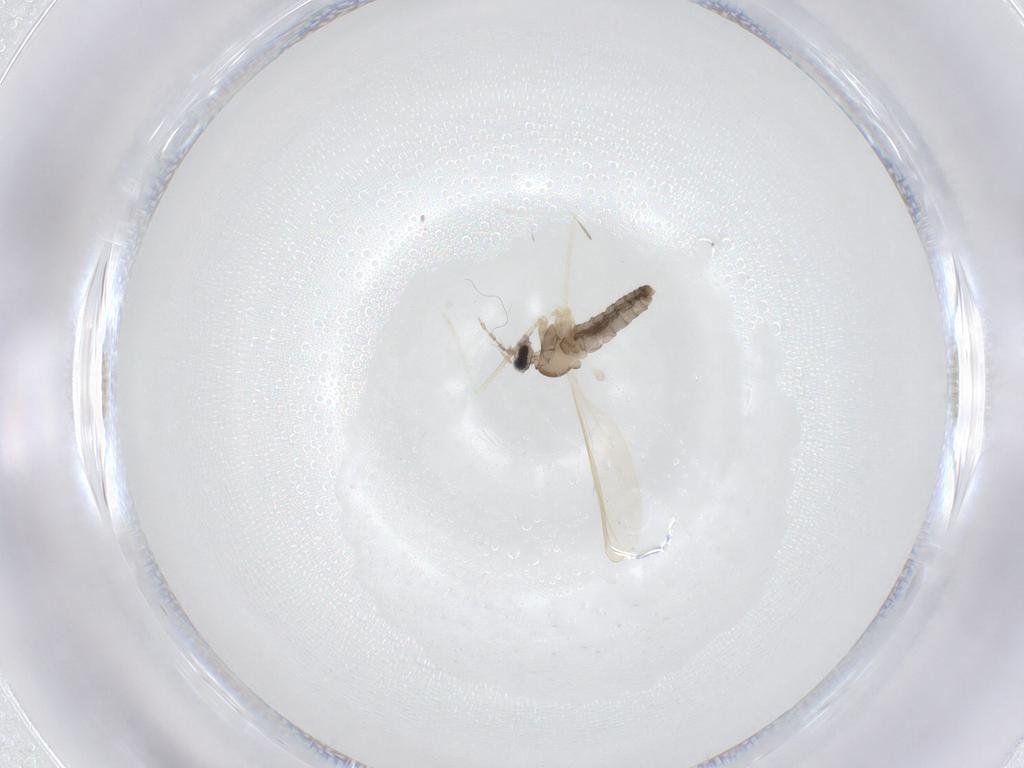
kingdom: Animalia
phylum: Arthropoda
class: Insecta
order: Diptera
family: Cecidomyiidae
